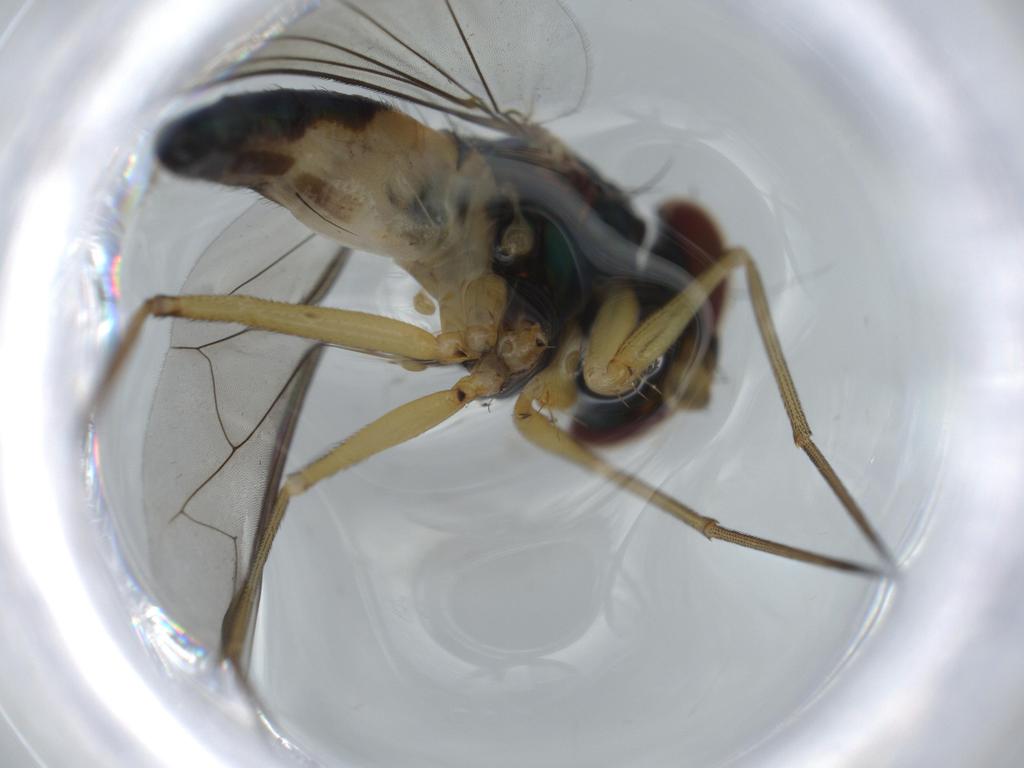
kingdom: Animalia
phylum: Arthropoda
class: Insecta
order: Diptera
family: Dolichopodidae
